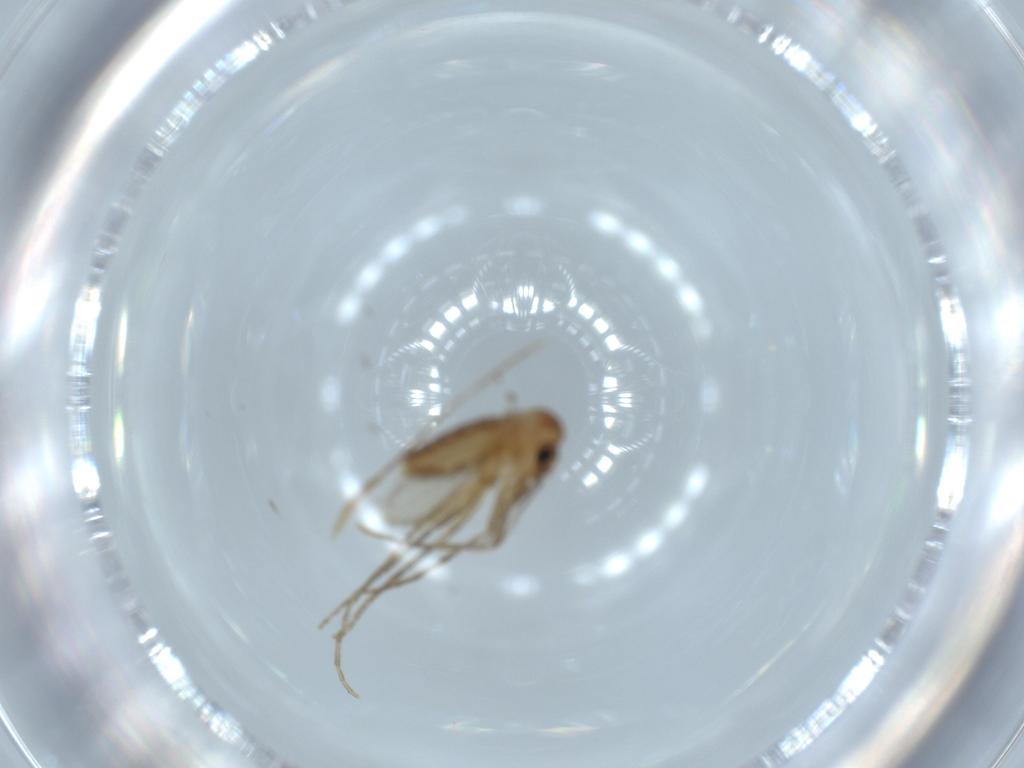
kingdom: Animalia
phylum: Arthropoda
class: Insecta
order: Diptera
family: Psychodidae
